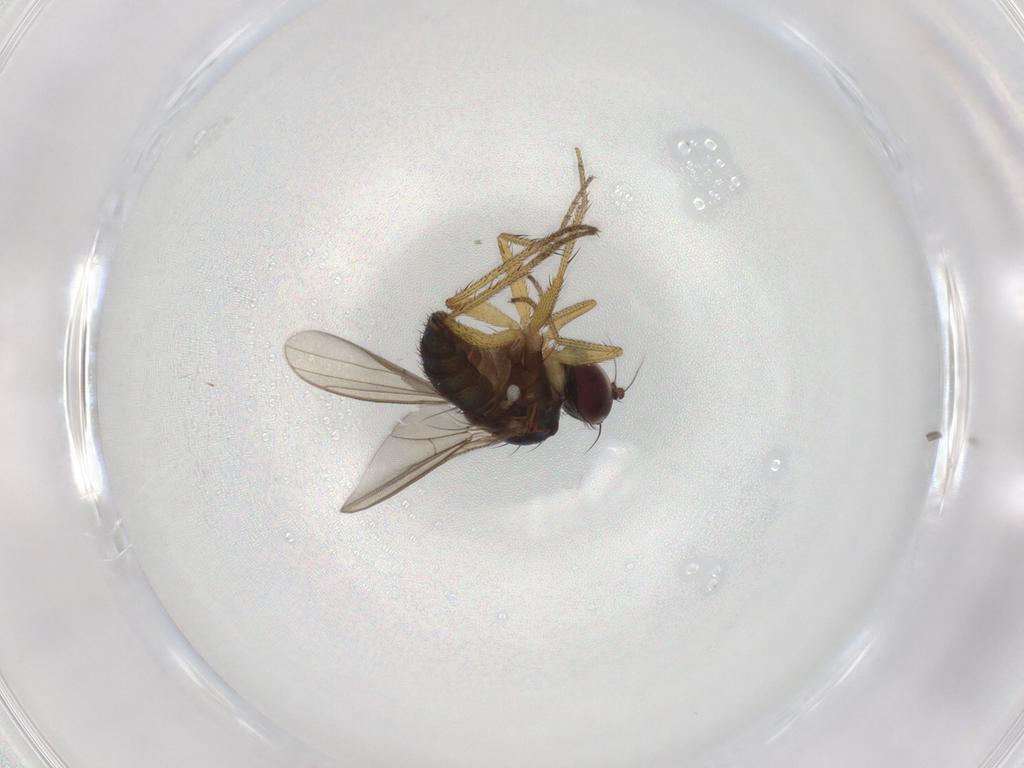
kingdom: Animalia
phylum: Arthropoda
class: Insecta
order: Diptera
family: Dolichopodidae
